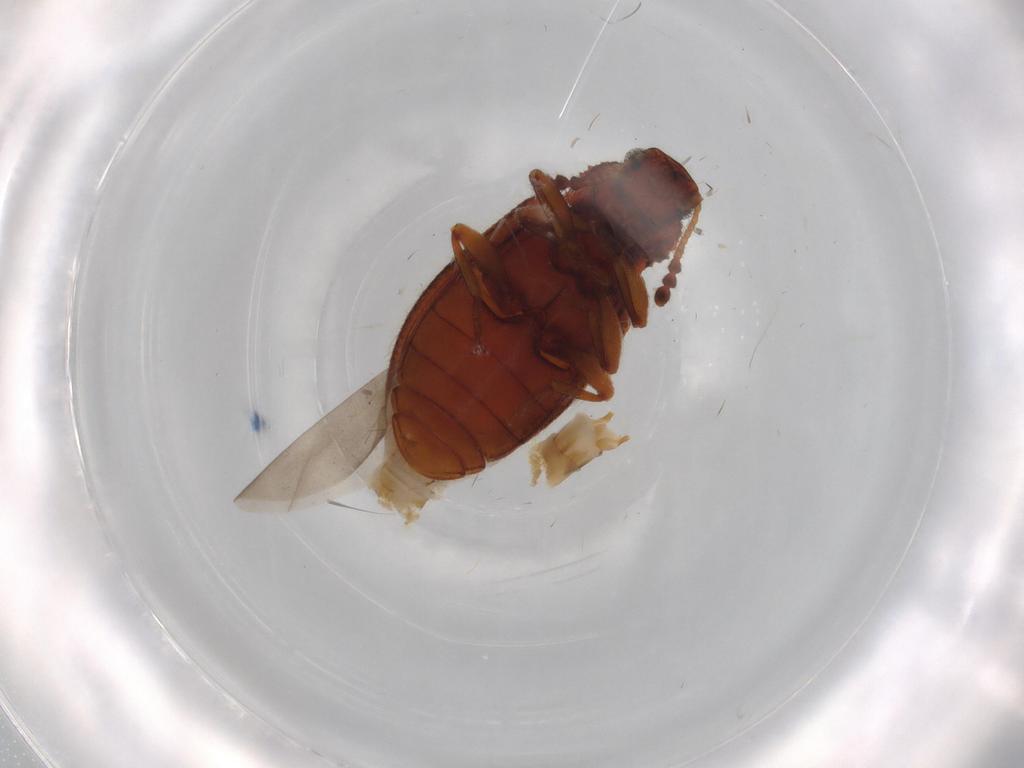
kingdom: Animalia
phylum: Arthropoda
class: Insecta
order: Coleoptera
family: Tenebrionidae
